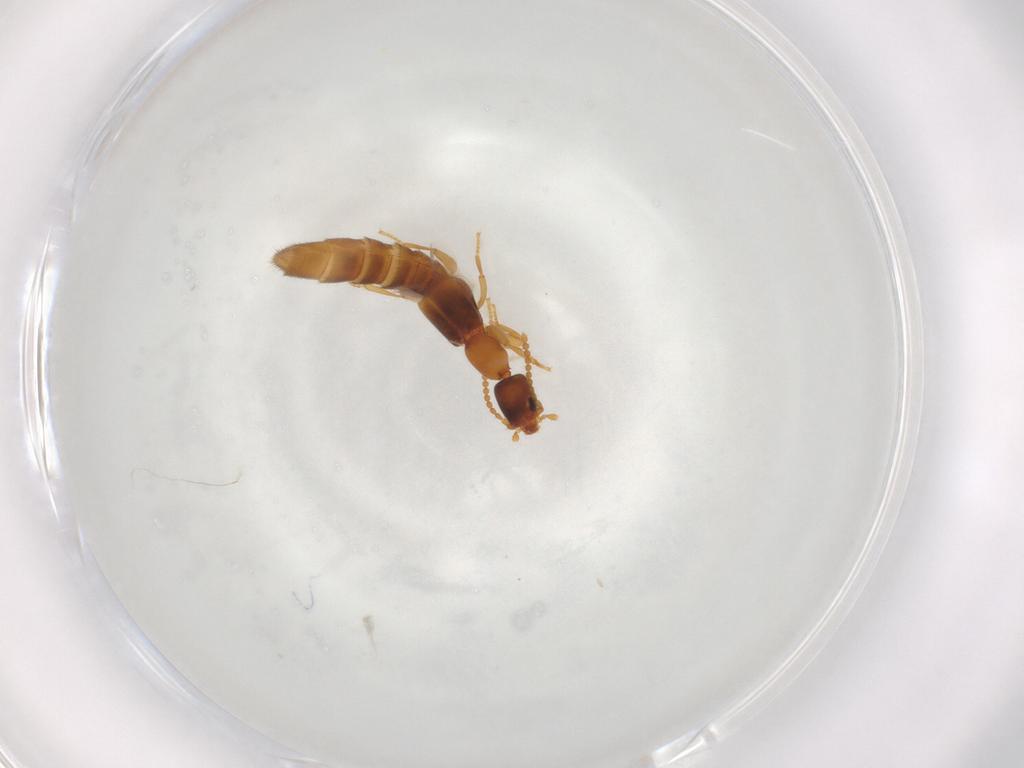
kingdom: Animalia
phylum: Arthropoda
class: Insecta
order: Coleoptera
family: Staphylinidae
